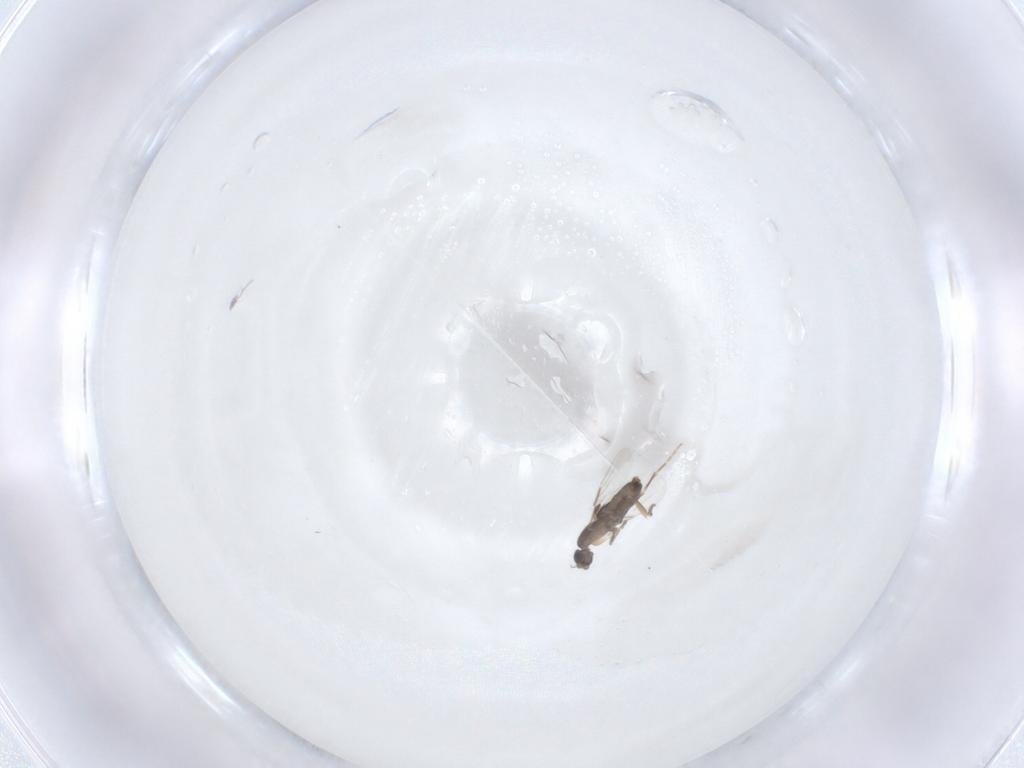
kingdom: Animalia
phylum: Arthropoda
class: Insecta
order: Diptera
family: Phoridae
